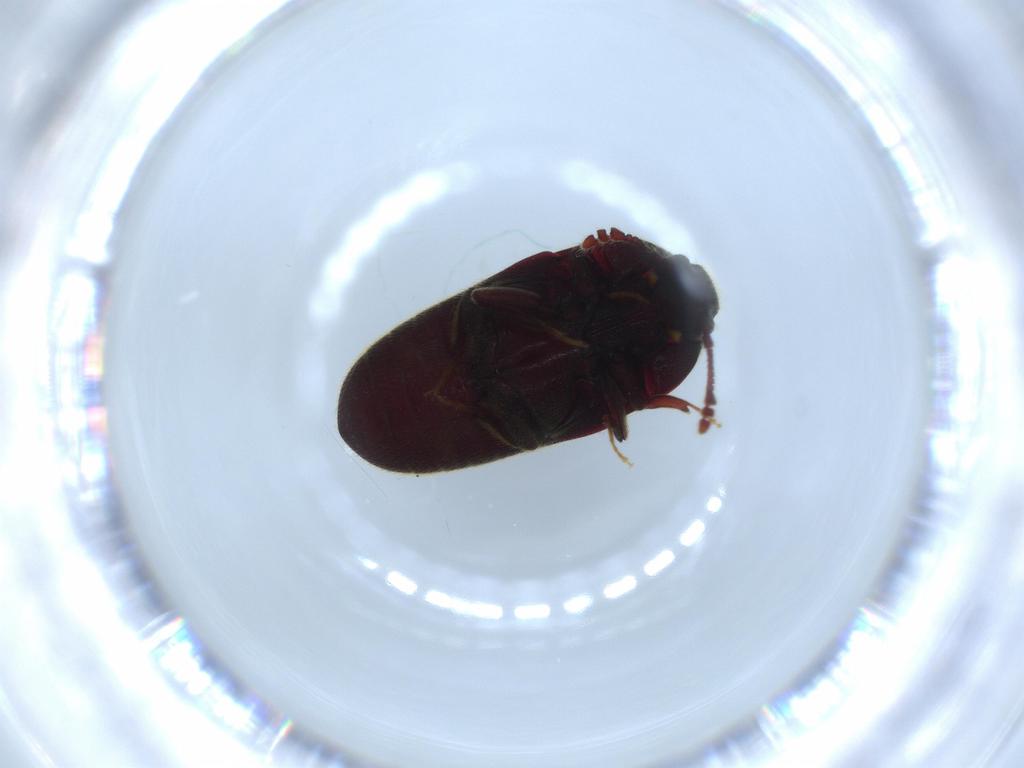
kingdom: Animalia
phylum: Arthropoda
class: Insecta
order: Coleoptera
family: Throscidae
